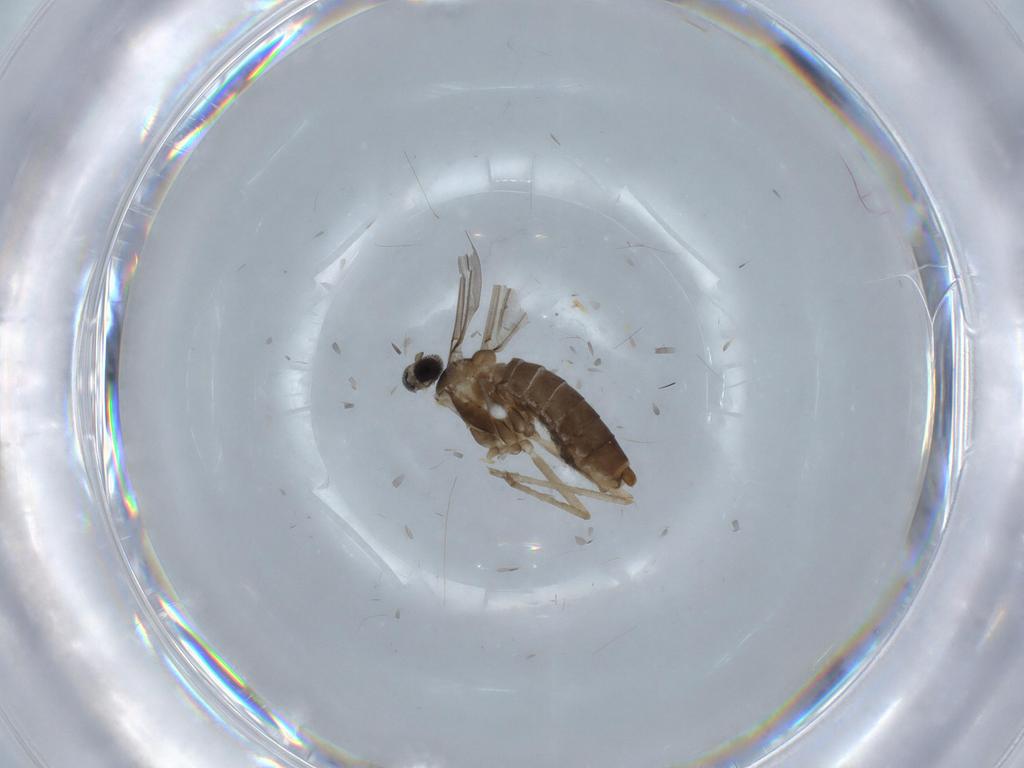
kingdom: Animalia
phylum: Arthropoda
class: Insecta
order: Diptera
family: Psychodidae
